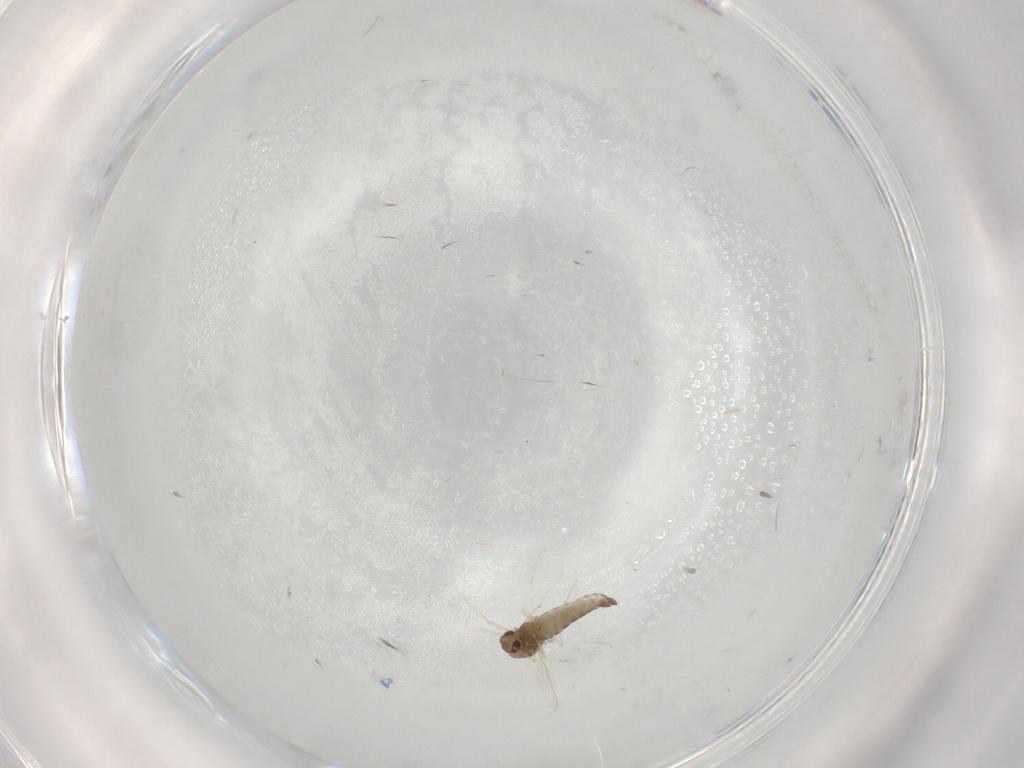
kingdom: Animalia
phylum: Arthropoda
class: Insecta
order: Diptera
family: Chironomidae
